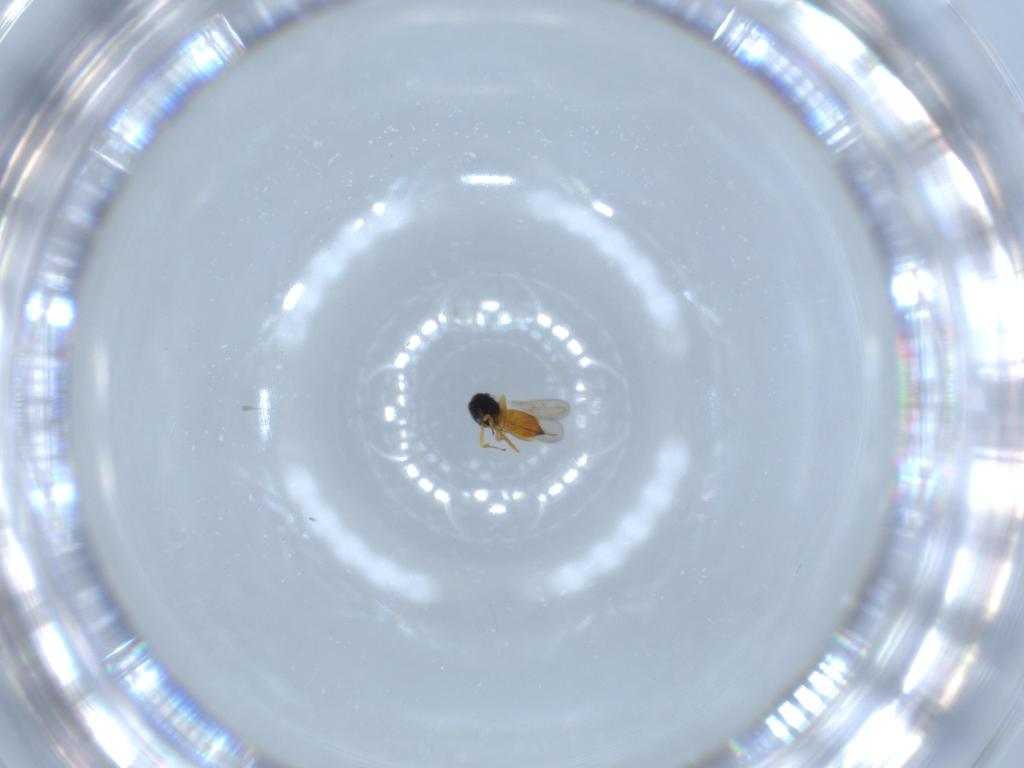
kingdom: Animalia
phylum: Arthropoda
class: Insecta
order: Hymenoptera
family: Scelionidae
